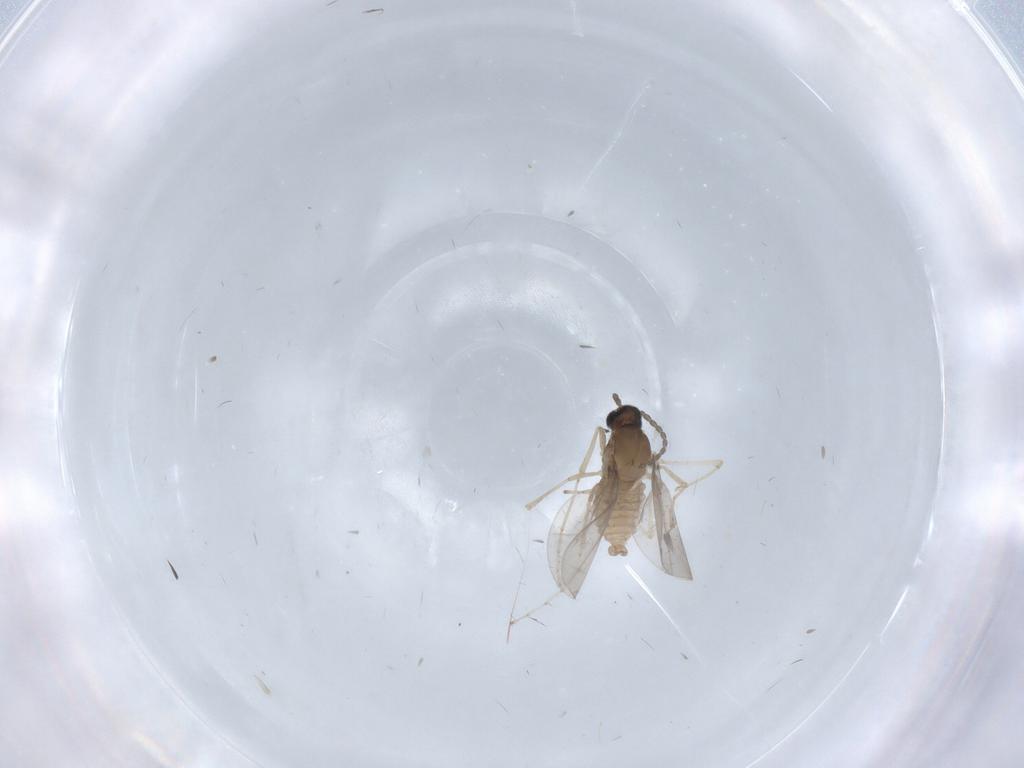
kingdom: Animalia
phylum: Arthropoda
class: Insecta
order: Diptera
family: Cecidomyiidae
